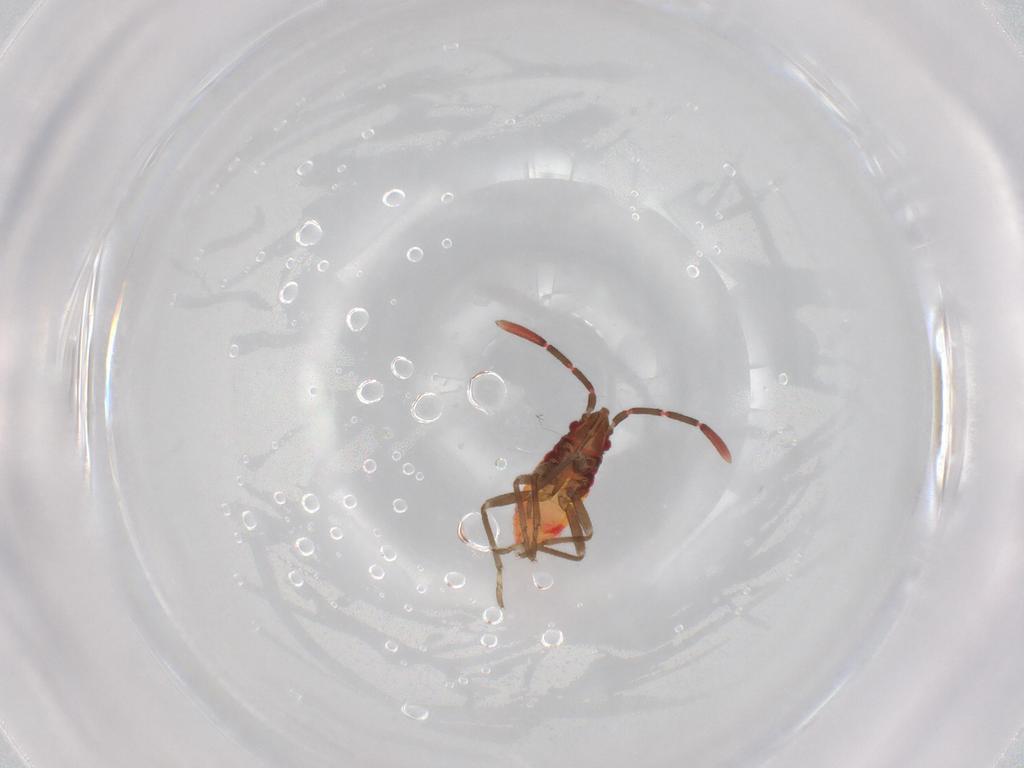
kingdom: Animalia
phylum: Arthropoda
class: Insecta
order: Hemiptera
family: Rhyparochromidae
